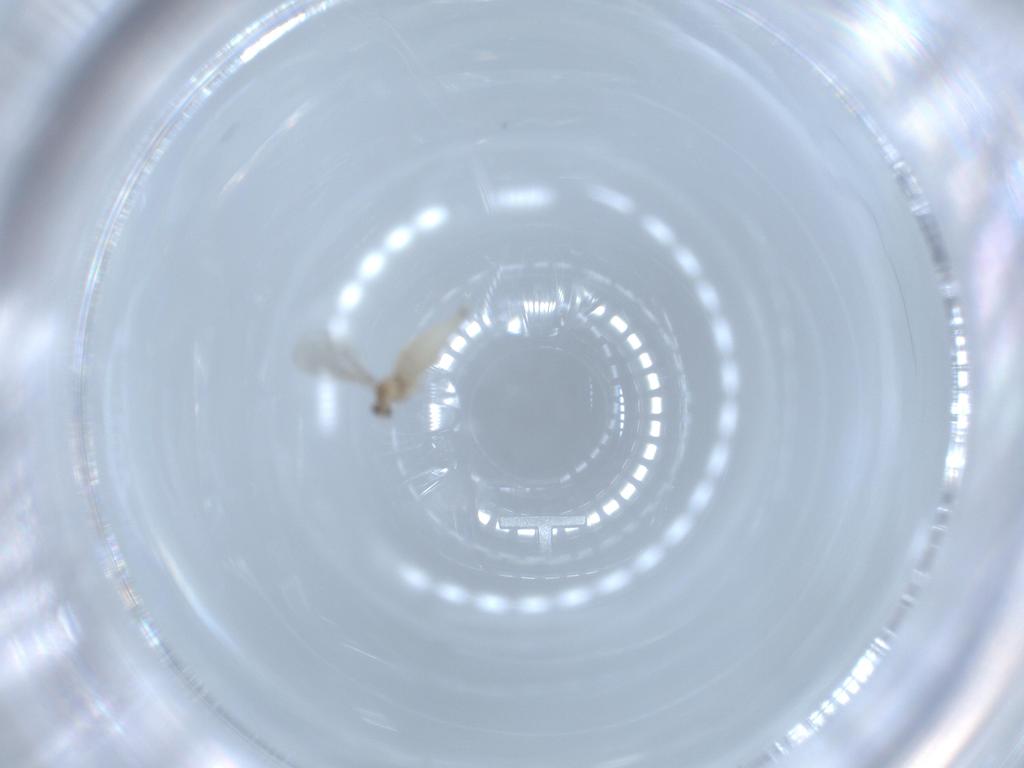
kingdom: Animalia
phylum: Arthropoda
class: Insecta
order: Diptera
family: Cecidomyiidae
